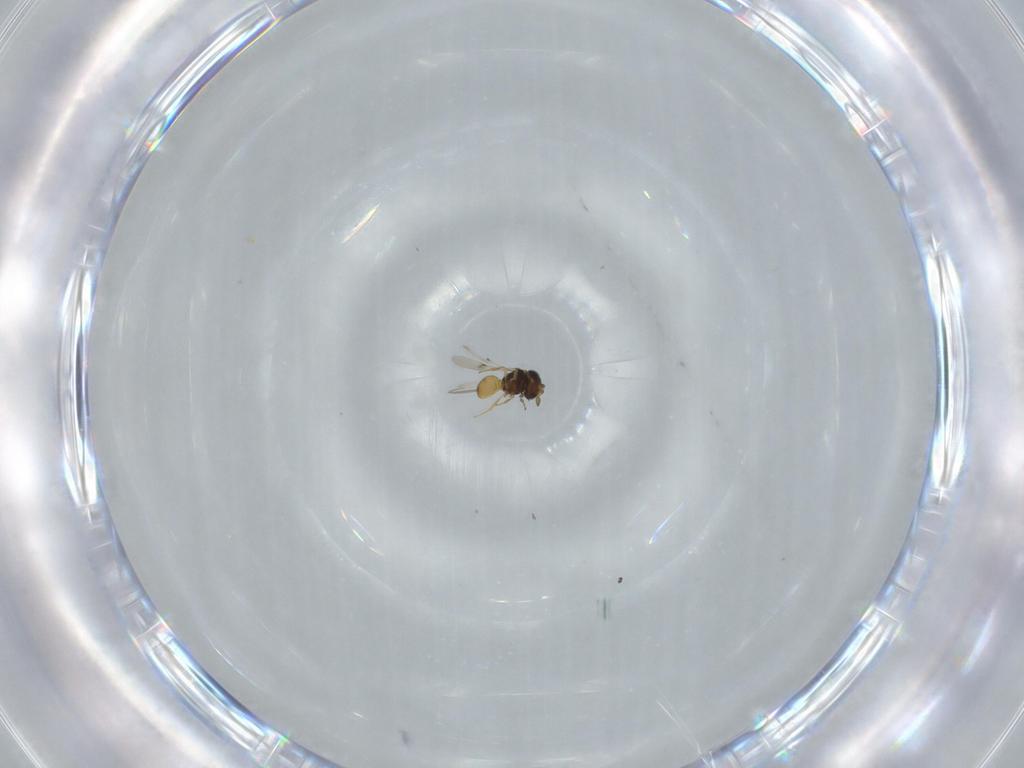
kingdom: Animalia
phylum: Arthropoda
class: Insecta
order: Hymenoptera
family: Scelionidae
